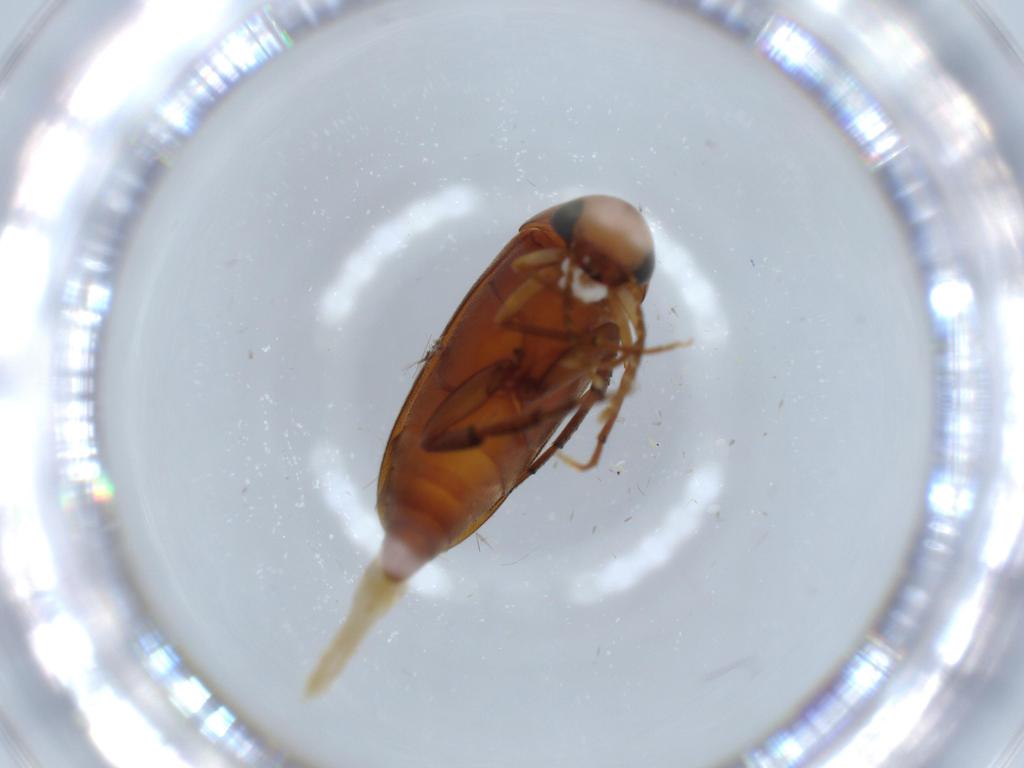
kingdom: Animalia
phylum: Arthropoda
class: Insecta
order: Coleoptera
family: Mordellidae
